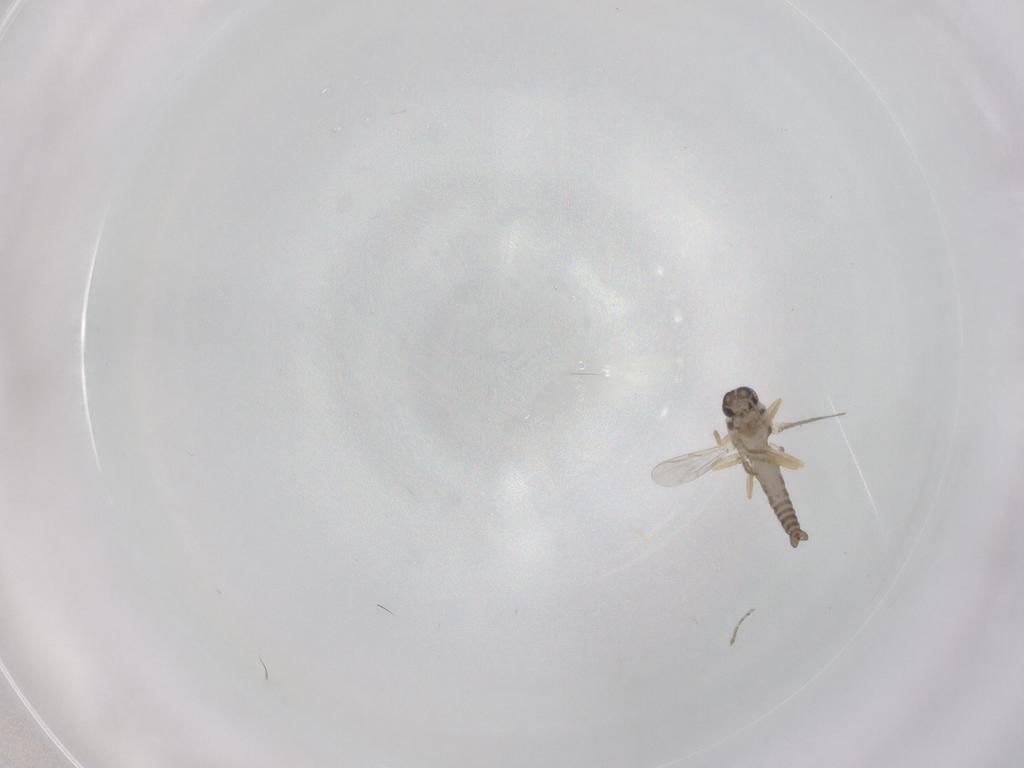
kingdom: Animalia
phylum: Arthropoda
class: Insecta
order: Diptera
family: Ceratopogonidae
